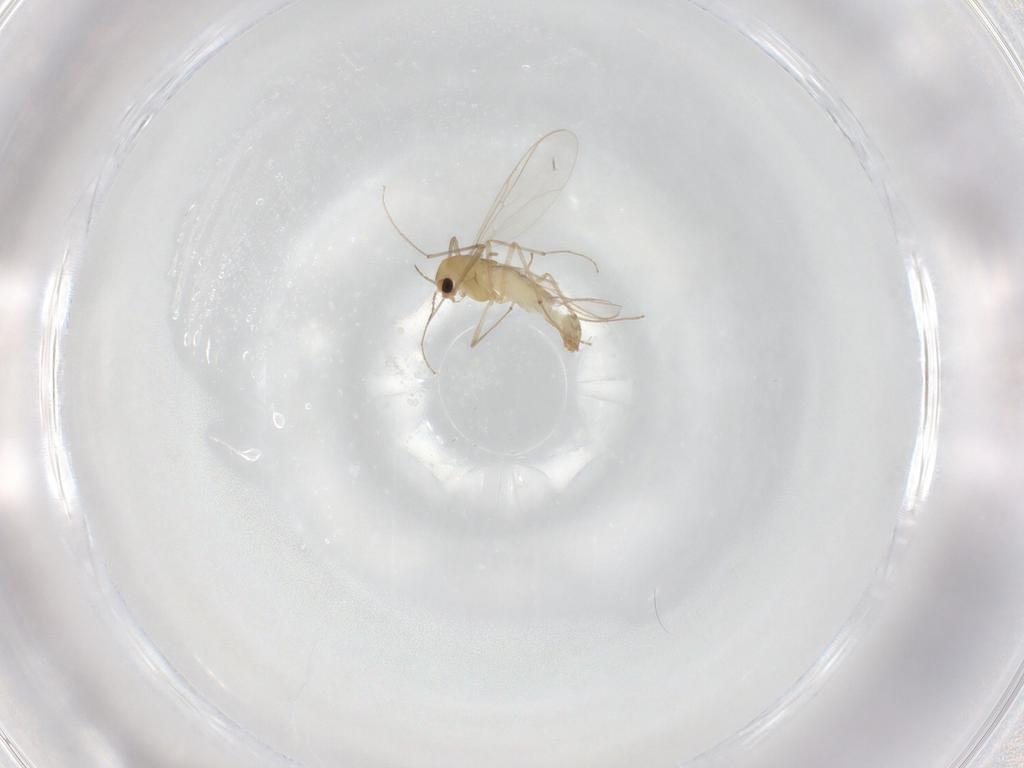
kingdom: Animalia
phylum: Arthropoda
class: Insecta
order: Diptera
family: Chironomidae
